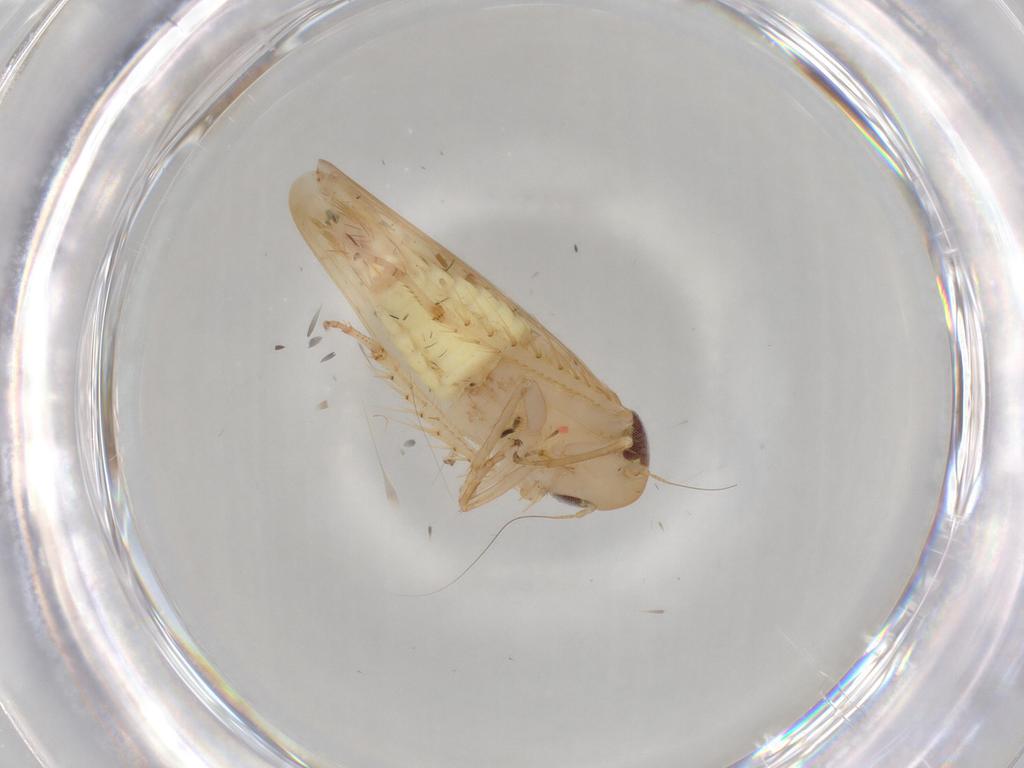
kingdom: Animalia
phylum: Arthropoda
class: Insecta
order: Hemiptera
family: Cicadellidae
